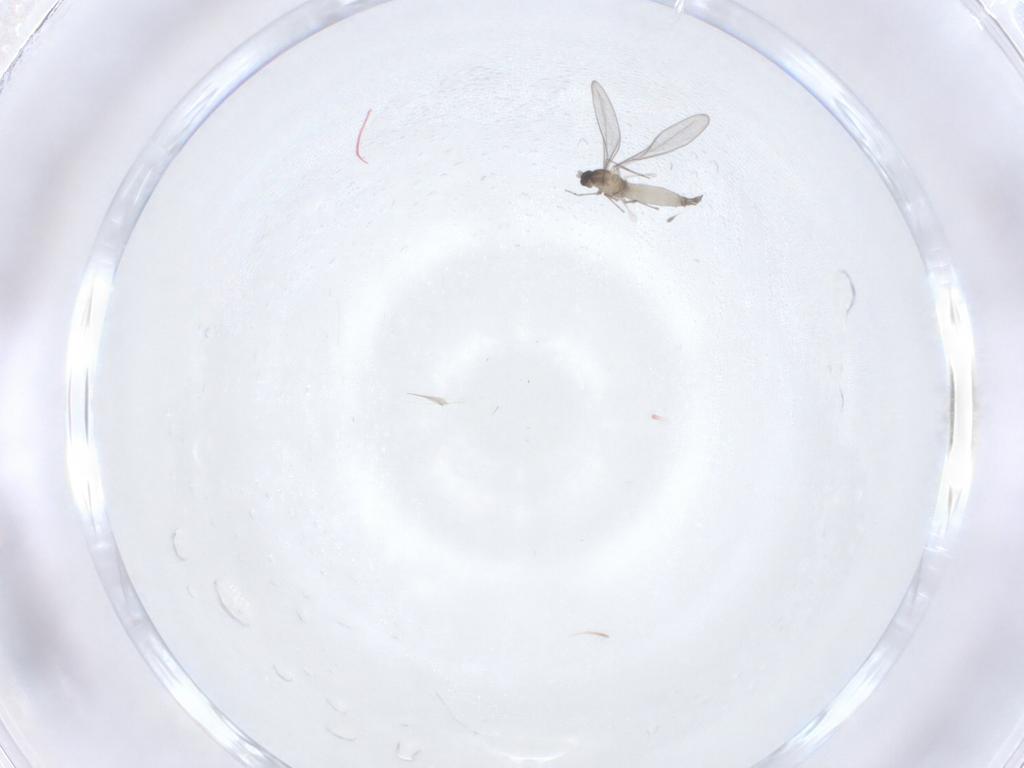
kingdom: Animalia
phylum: Arthropoda
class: Insecta
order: Diptera
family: Cecidomyiidae
